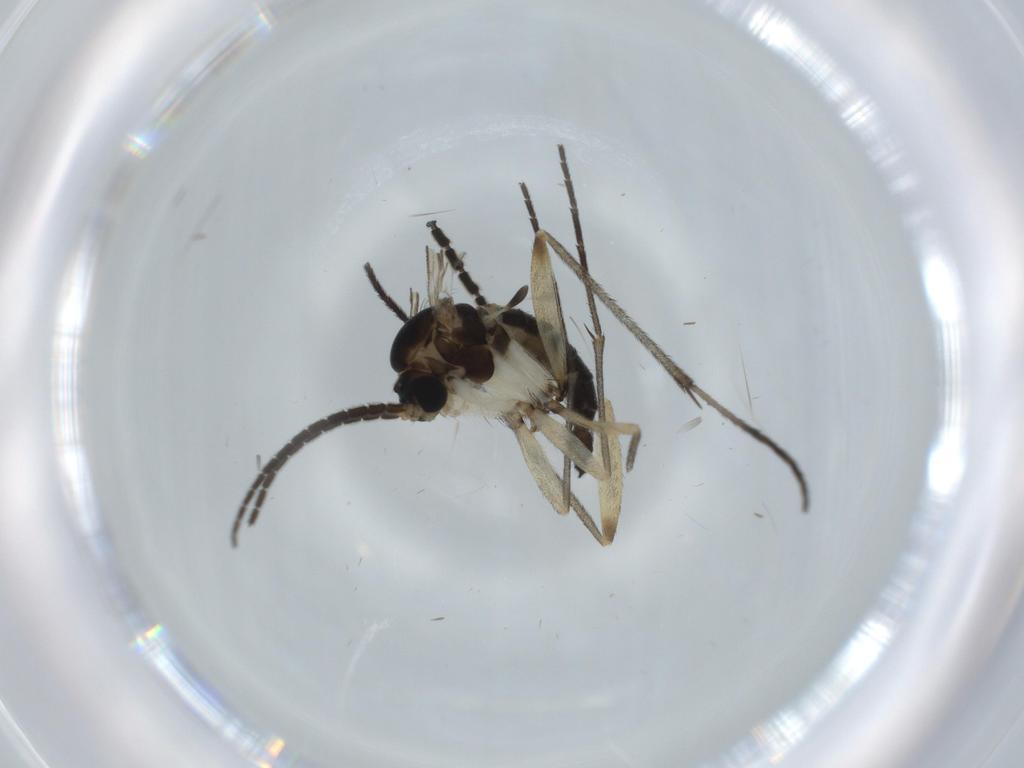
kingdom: Animalia
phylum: Arthropoda
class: Insecta
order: Diptera
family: Sciaridae
